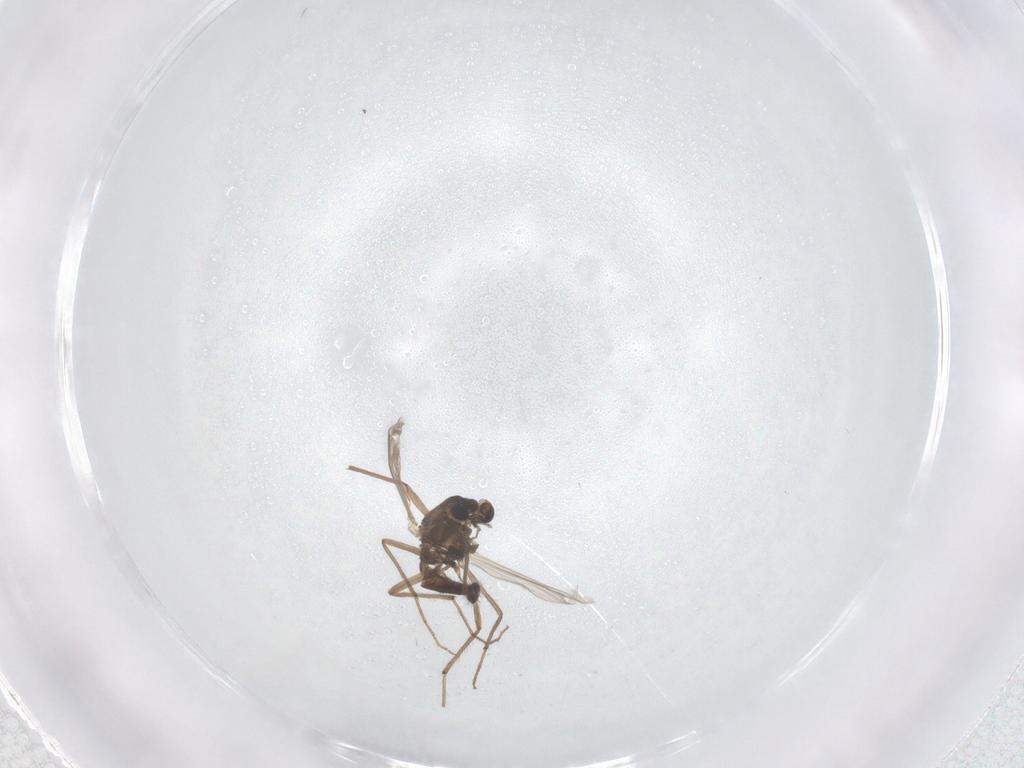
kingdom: Animalia
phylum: Arthropoda
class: Insecta
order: Diptera
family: Chironomidae
